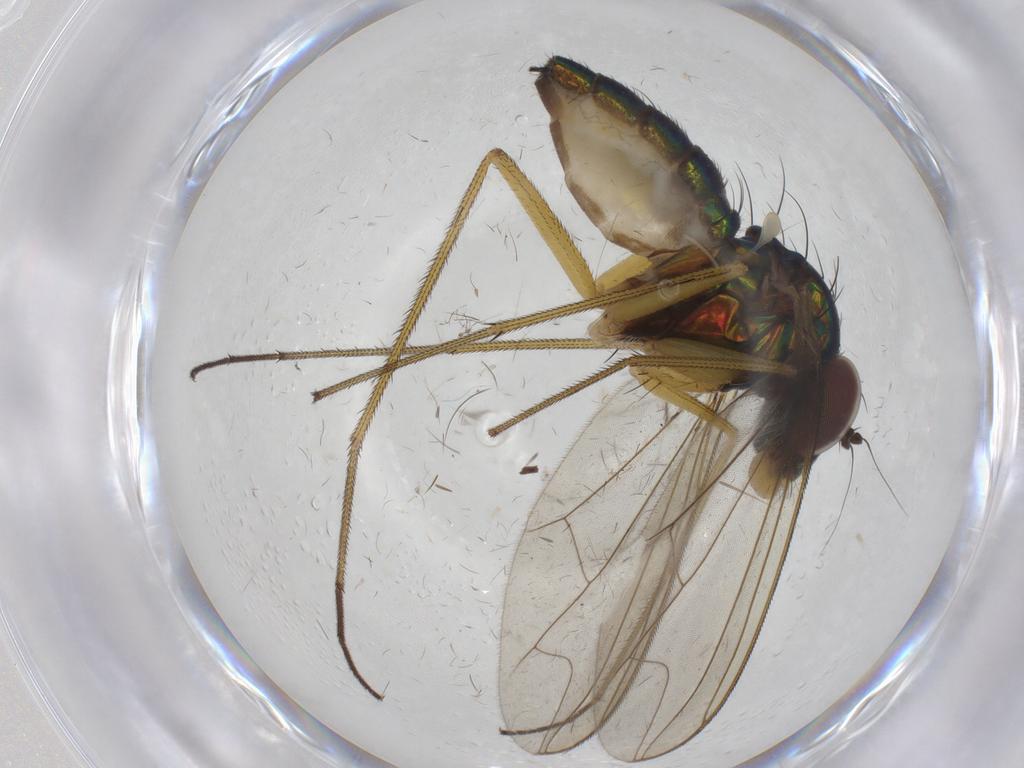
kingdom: Animalia
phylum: Arthropoda
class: Insecta
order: Diptera
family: Dolichopodidae
